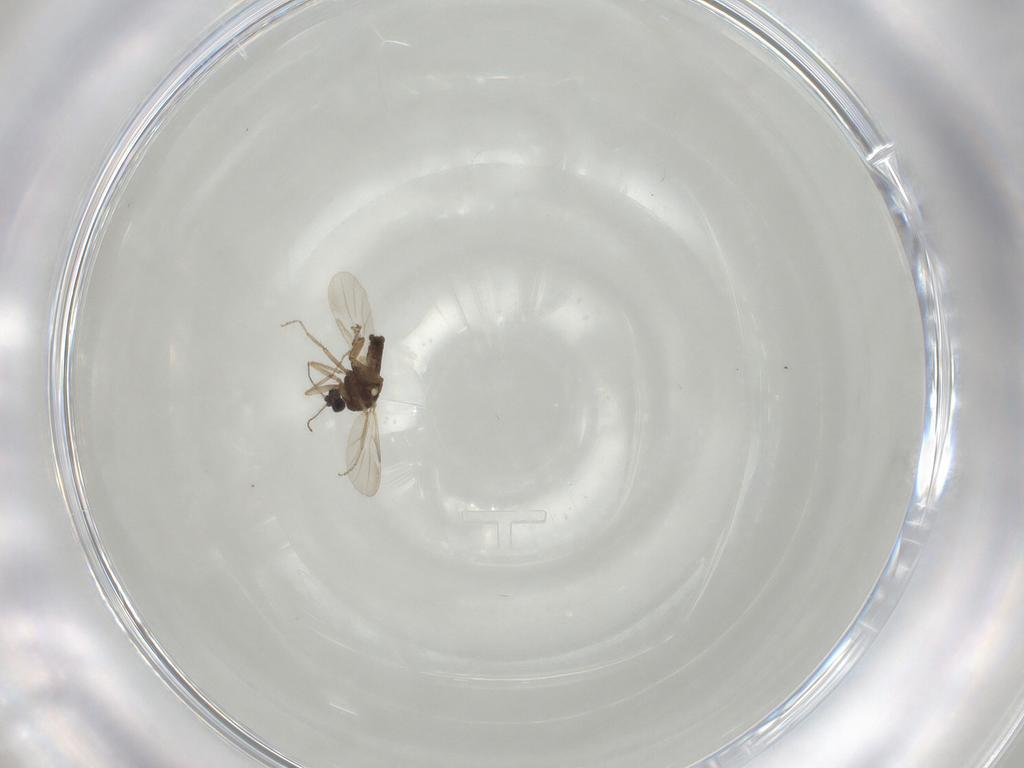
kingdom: Animalia
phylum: Arthropoda
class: Insecta
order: Diptera
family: Ceratopogonidae
